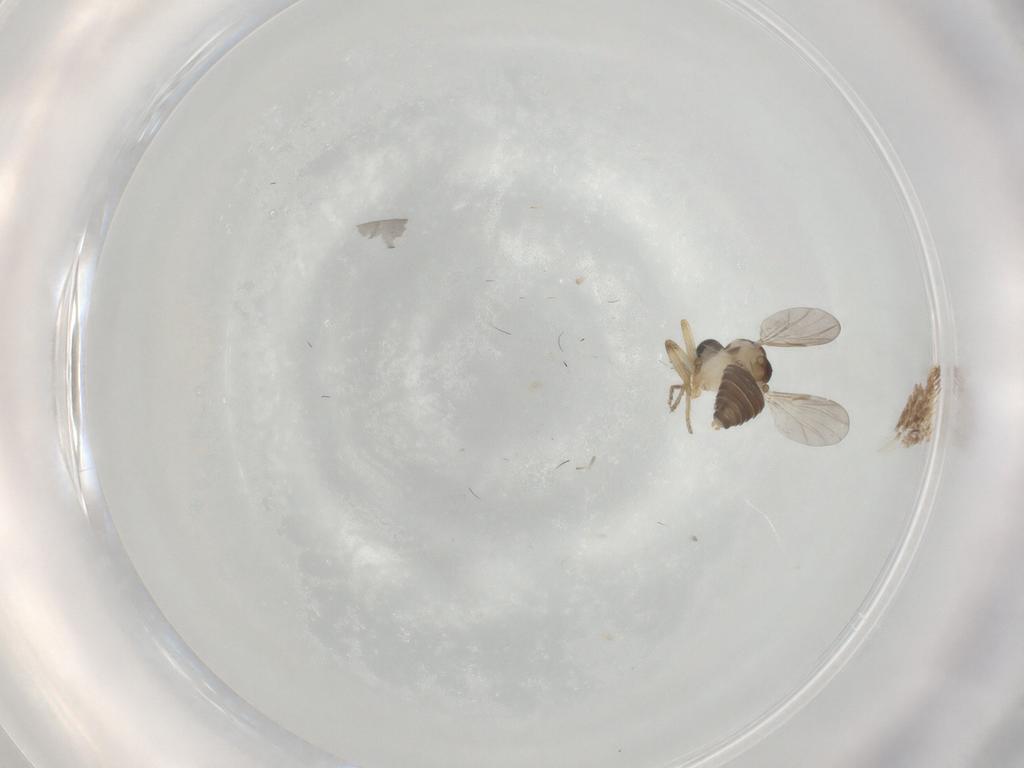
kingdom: Animalia
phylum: Arthropoda
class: Insecta
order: Diptera
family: Ceratopogonidae
